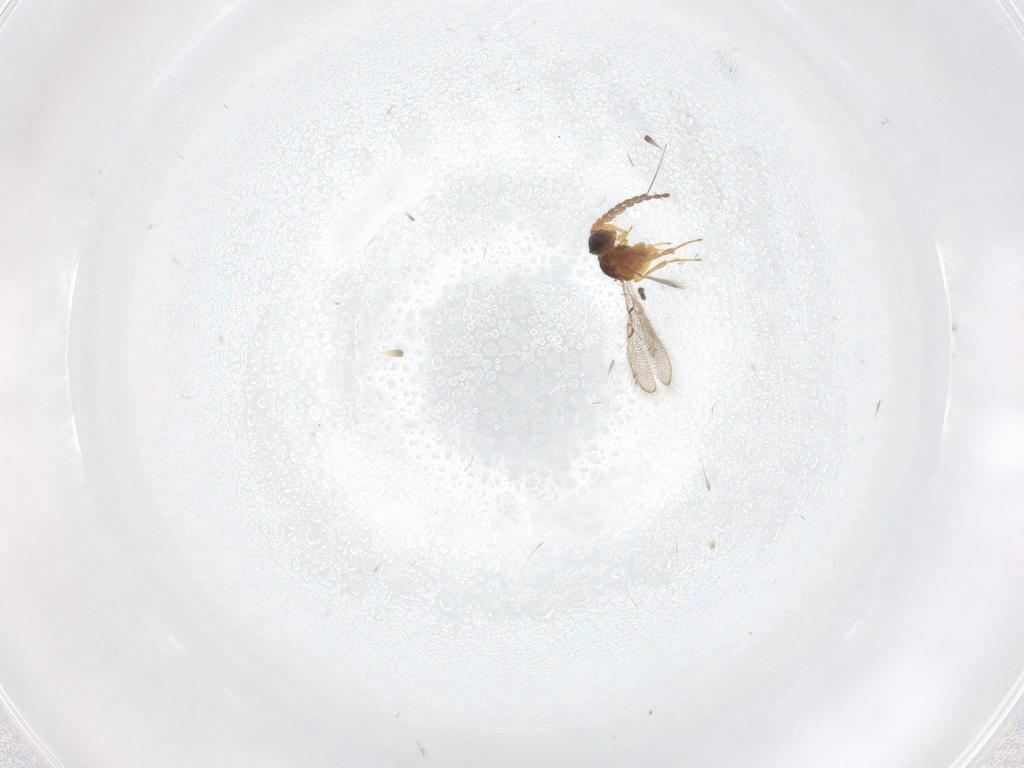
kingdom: Animalia
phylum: Arthropoda
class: Insecta
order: Hymenoptera
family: Figitidae
